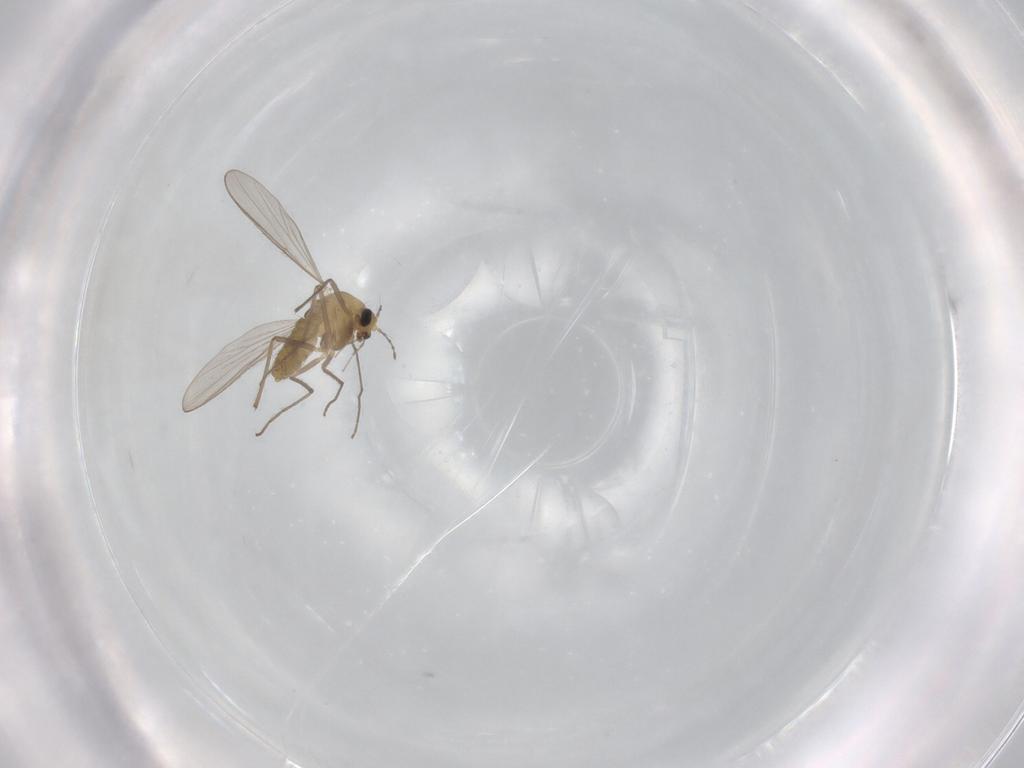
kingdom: Animalia
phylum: Arthropoda
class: Insecta
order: Diptera
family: Chironomidae
